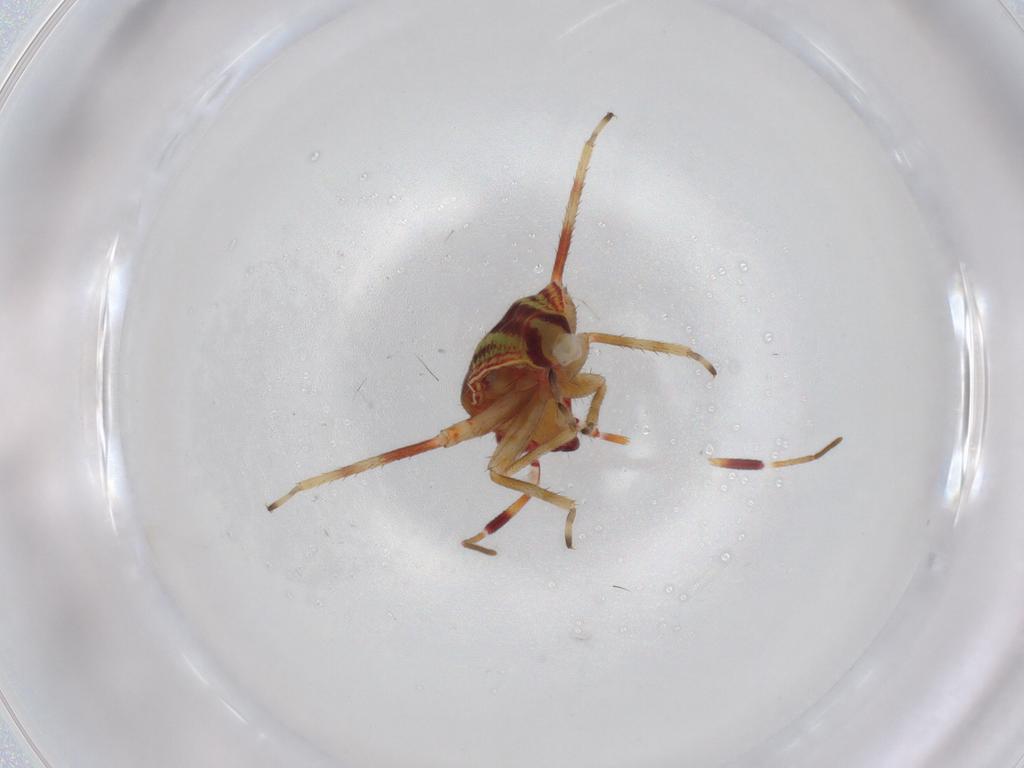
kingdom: Animalia
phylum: Arthropoda
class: Insecta
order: Hemiptera
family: Miridae
